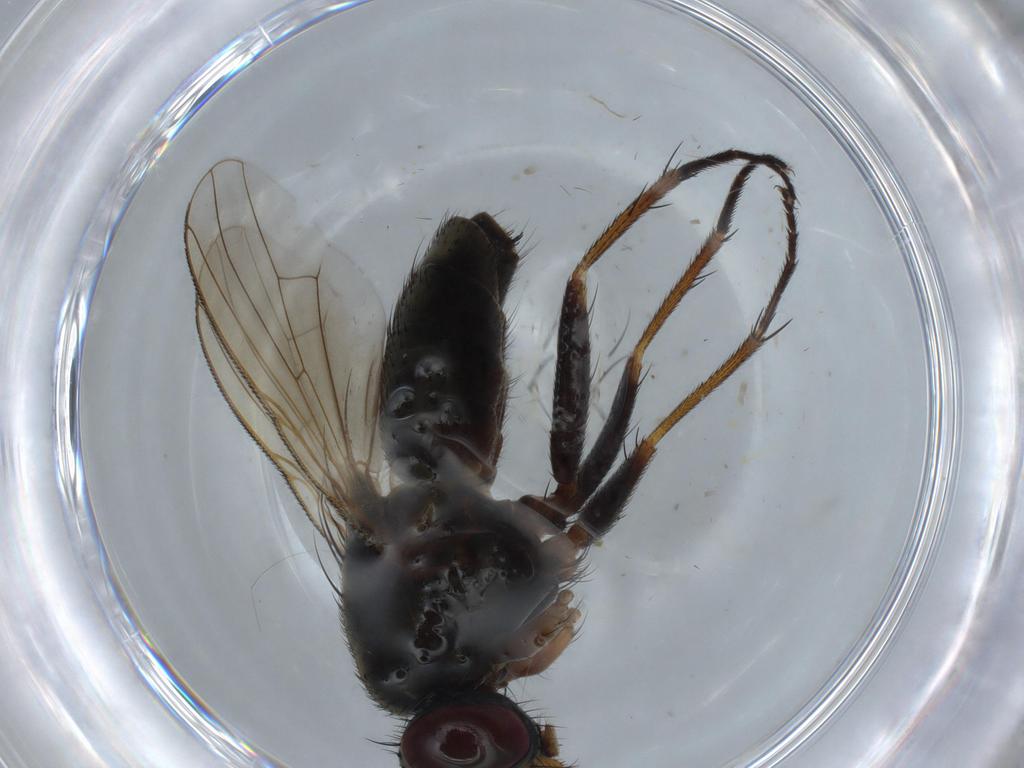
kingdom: Animalia
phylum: Arthropoda
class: Insecta
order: Diptera
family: Muscidae
